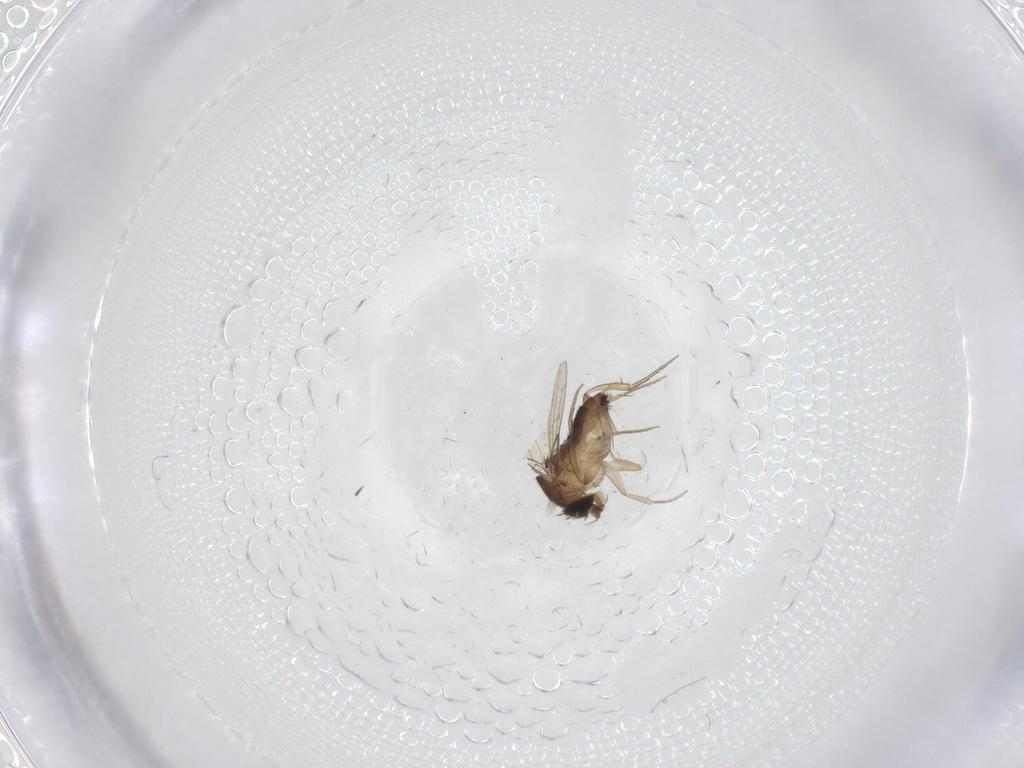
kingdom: Animalia
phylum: Arthropoda
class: Insecta
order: Diptera
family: Phoridae
